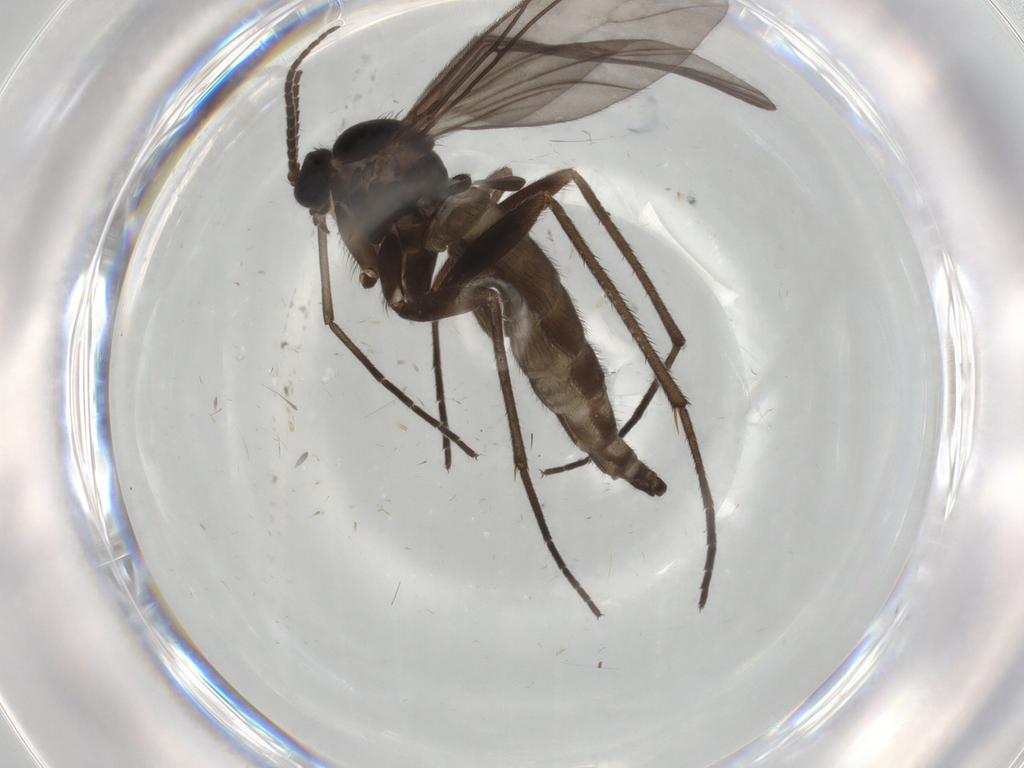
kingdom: Animalia
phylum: Arthropoda
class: Insecta
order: Diptera
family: Sciaridae
